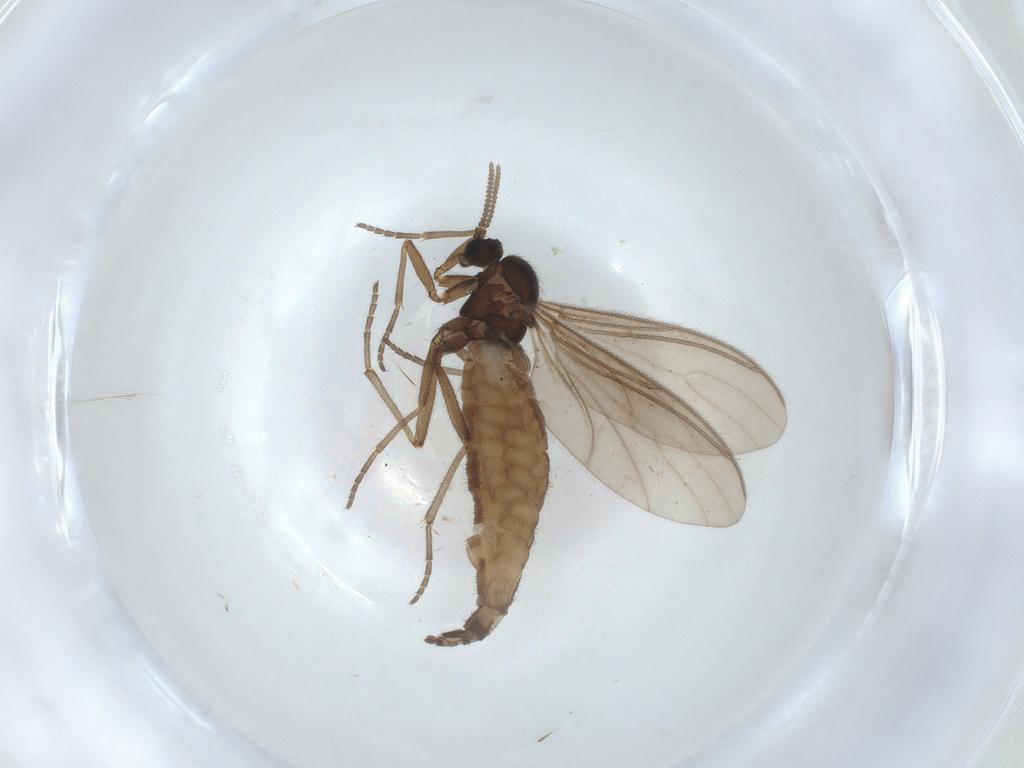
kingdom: Animalia
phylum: Arthropoda
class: Insecta
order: Diptera
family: Sciaridae
